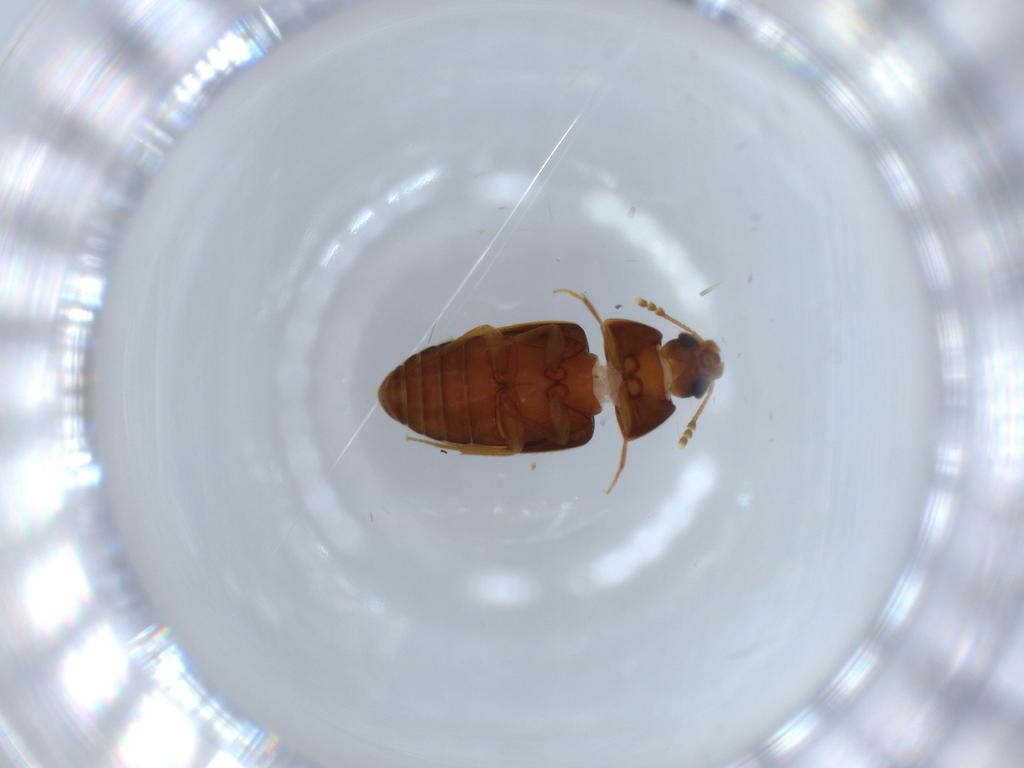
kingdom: Animalia
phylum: Arthropoda
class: Insecta
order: Coleoptera
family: Mycetophagidae
